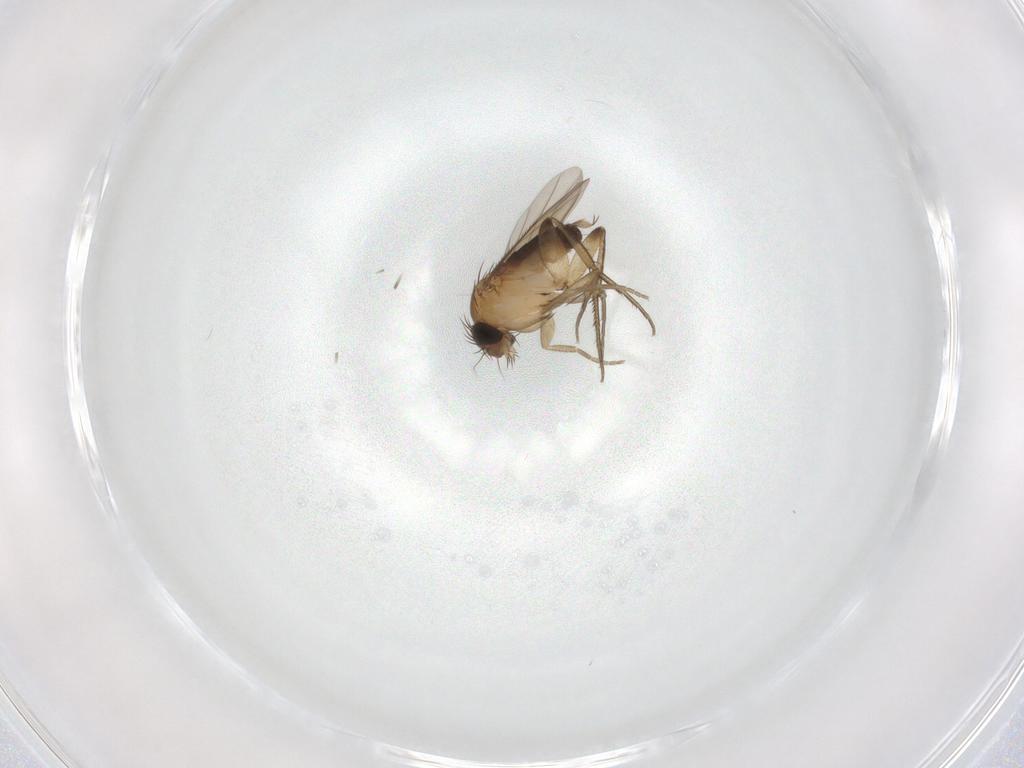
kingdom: Animalia
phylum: Arthropoda
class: Insecta
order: Diptera
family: Phoridae
